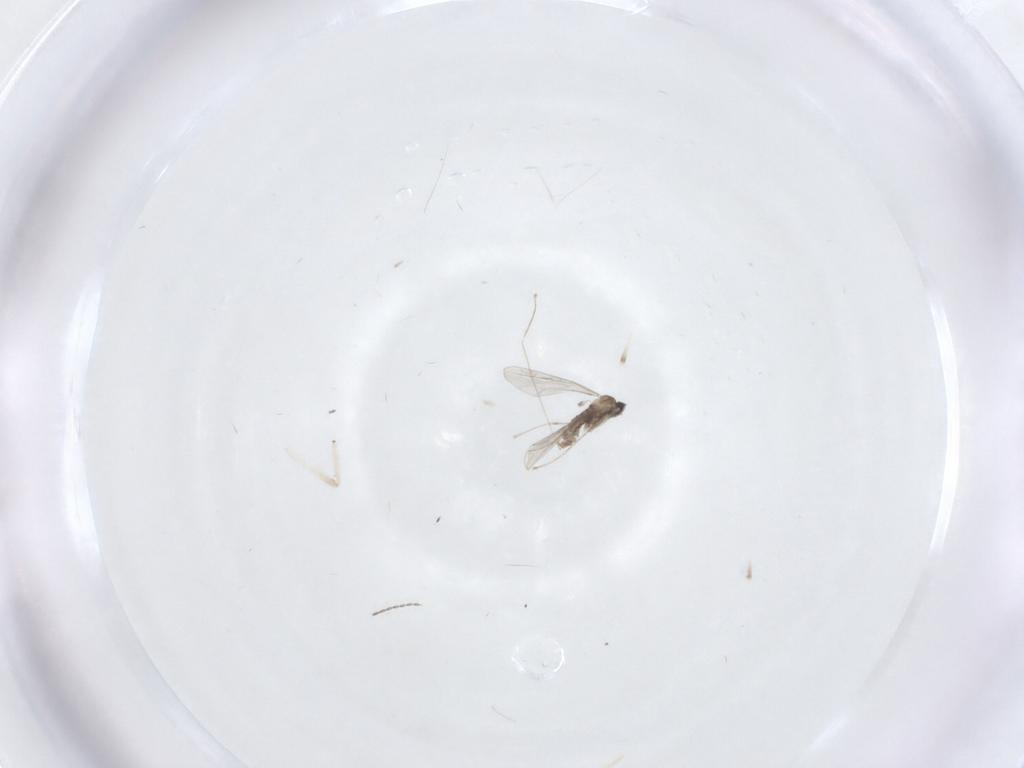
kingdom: Animalia
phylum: Arthropoda
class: Insecta
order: Diptera
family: Cecidomyiidae
